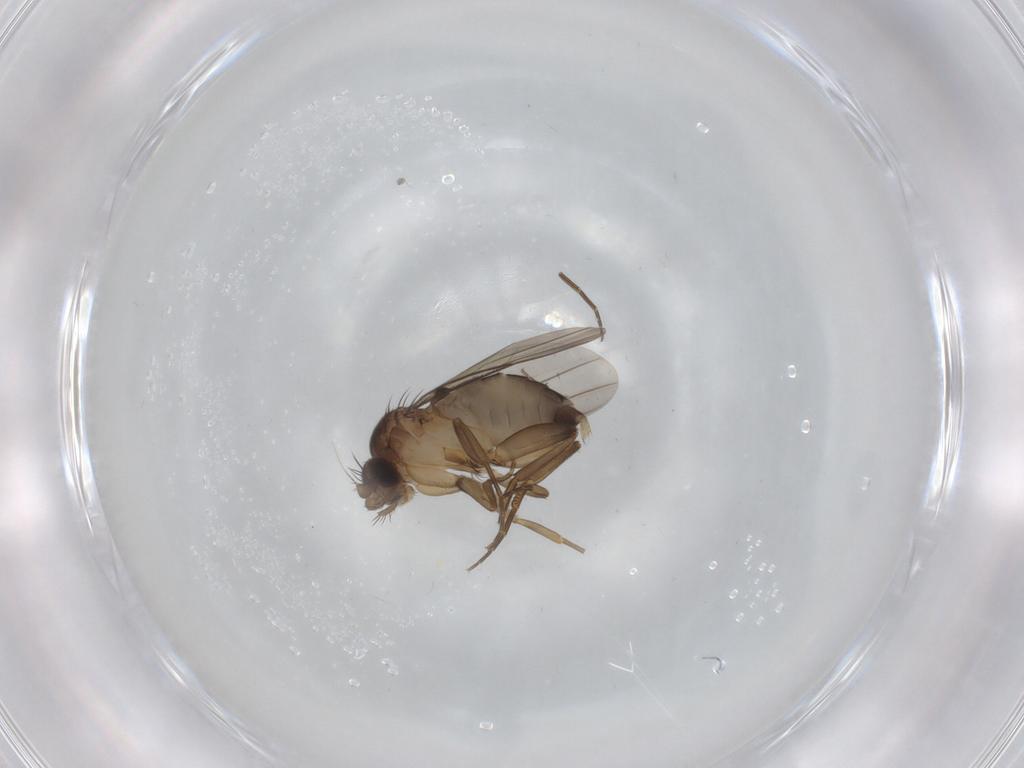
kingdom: Animalia
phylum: Arthropoda
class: Insecta
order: Diptera
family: Phoridae
